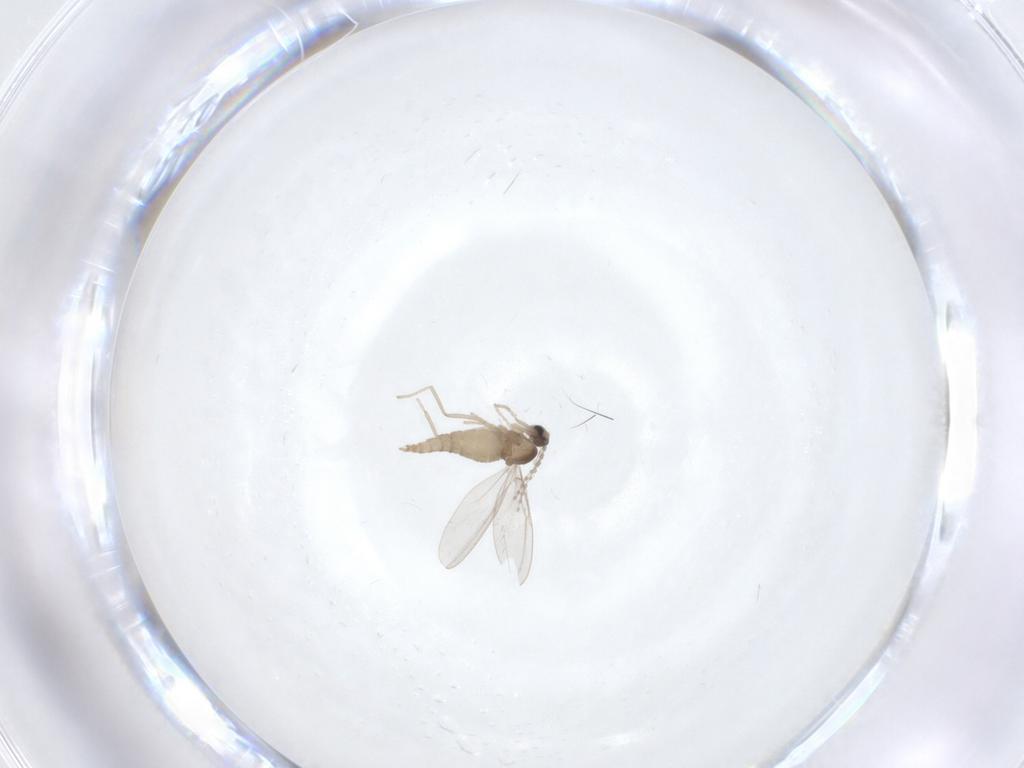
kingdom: Animalia
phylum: Arthropoda
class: Insecta
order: Diptera
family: Cecidomyiidae
